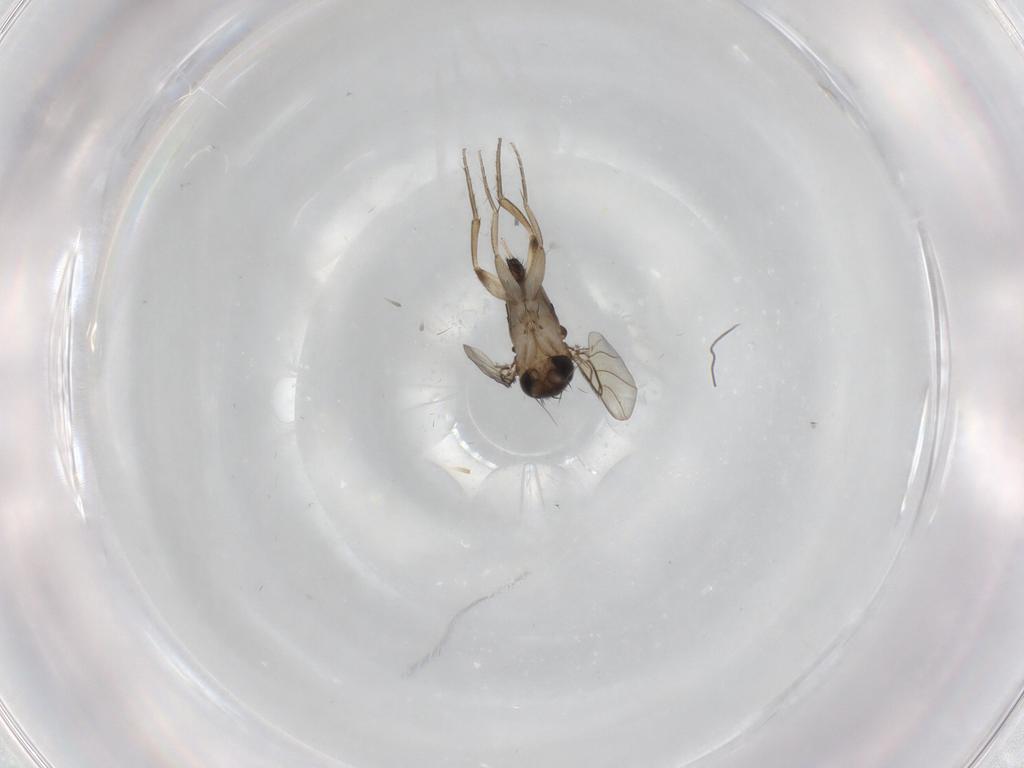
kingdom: Animalia
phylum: Arthropoda
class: Insecta
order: Diptera
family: Phoridae
